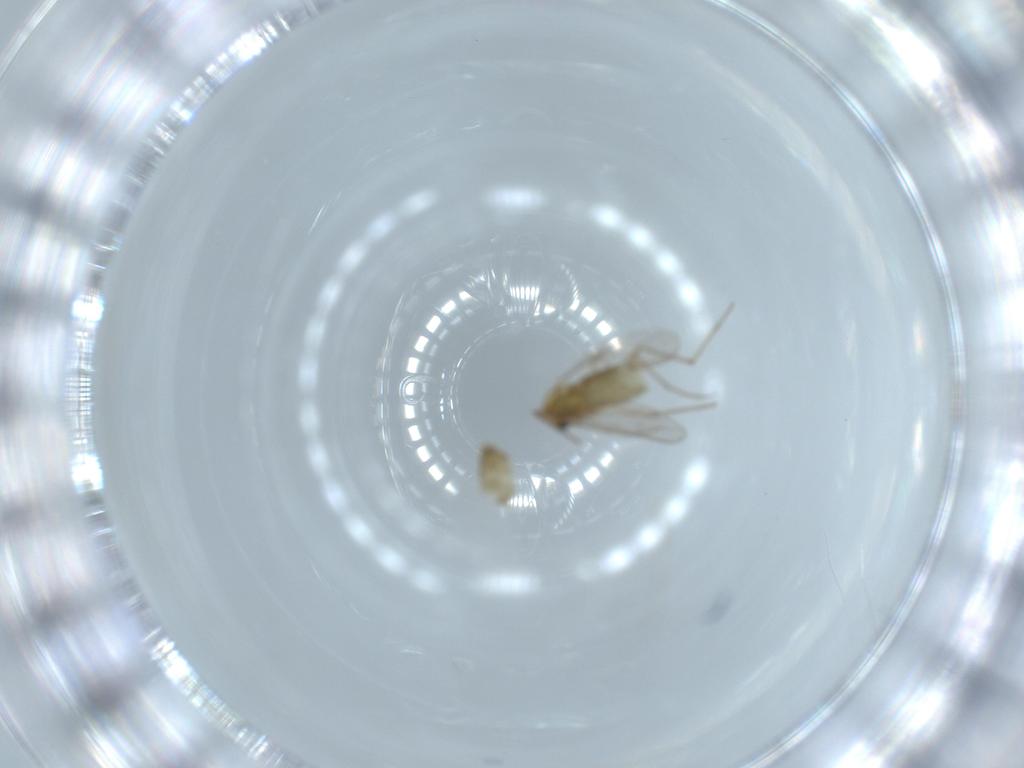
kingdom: Animalia
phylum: Arthropoda
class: Insecta
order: Diptera
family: Chironomidae
